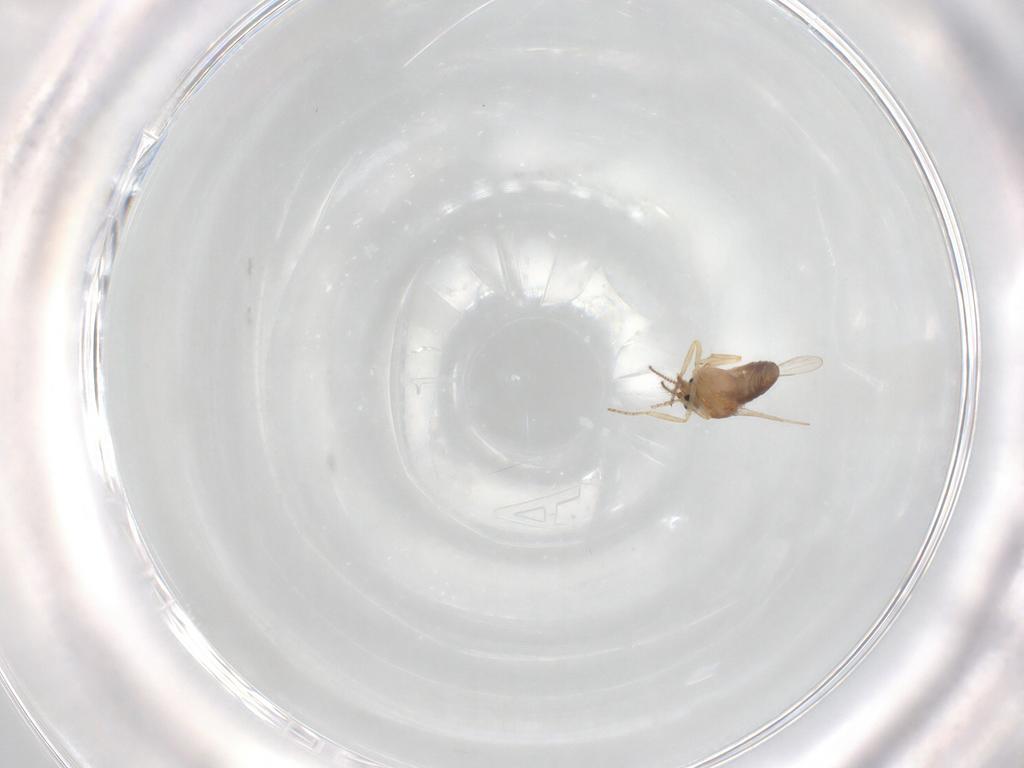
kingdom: Animalia
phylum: Arthropoda
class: Insecta
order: Diptera
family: Ceratopogonidae
